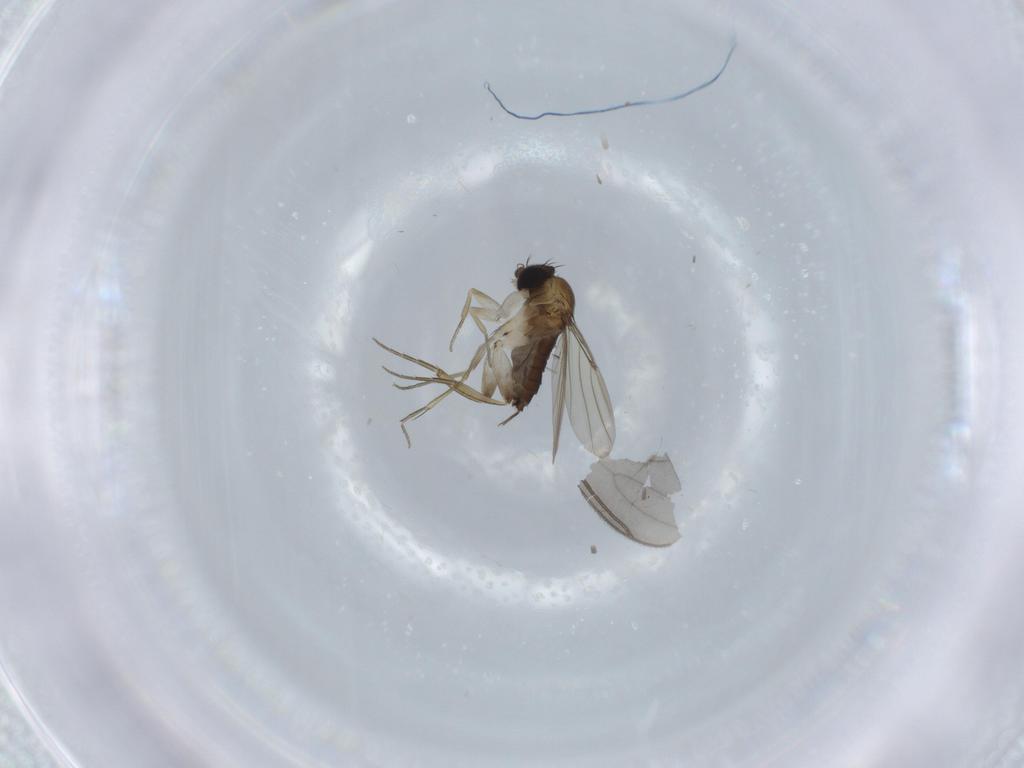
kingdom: Animalia
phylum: Arthropoda
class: Insecta
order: Diptera
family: Phoridae
